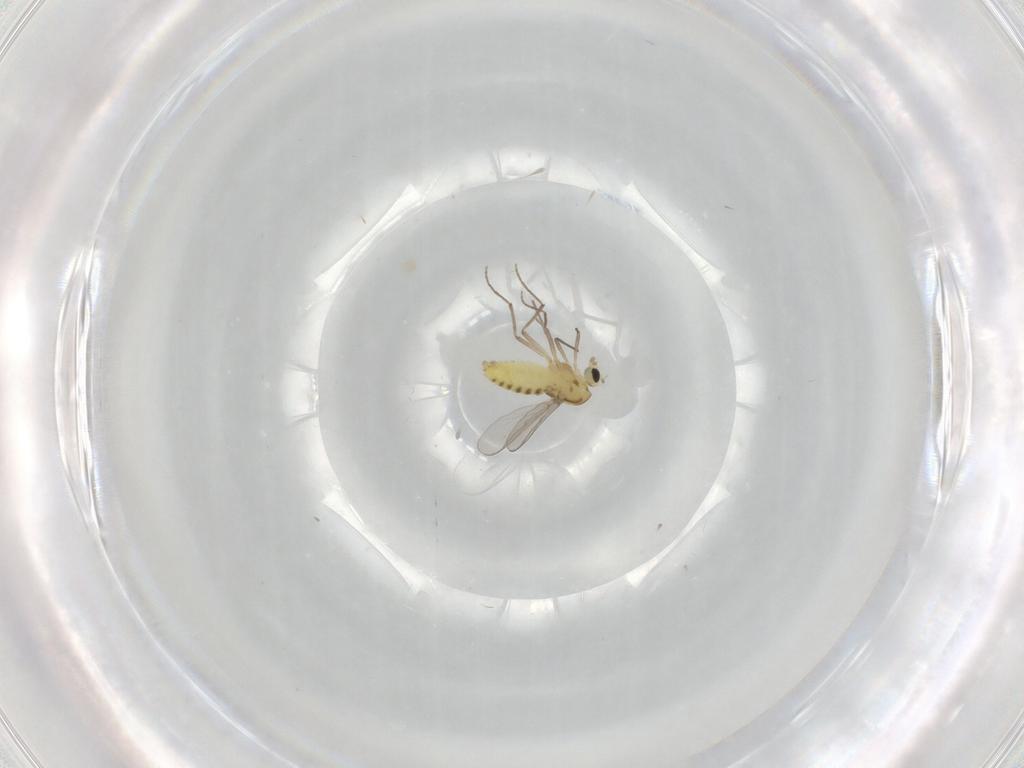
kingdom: Animalia
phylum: Arthropoda
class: Insecta
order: Diptera
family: Chironomidae
